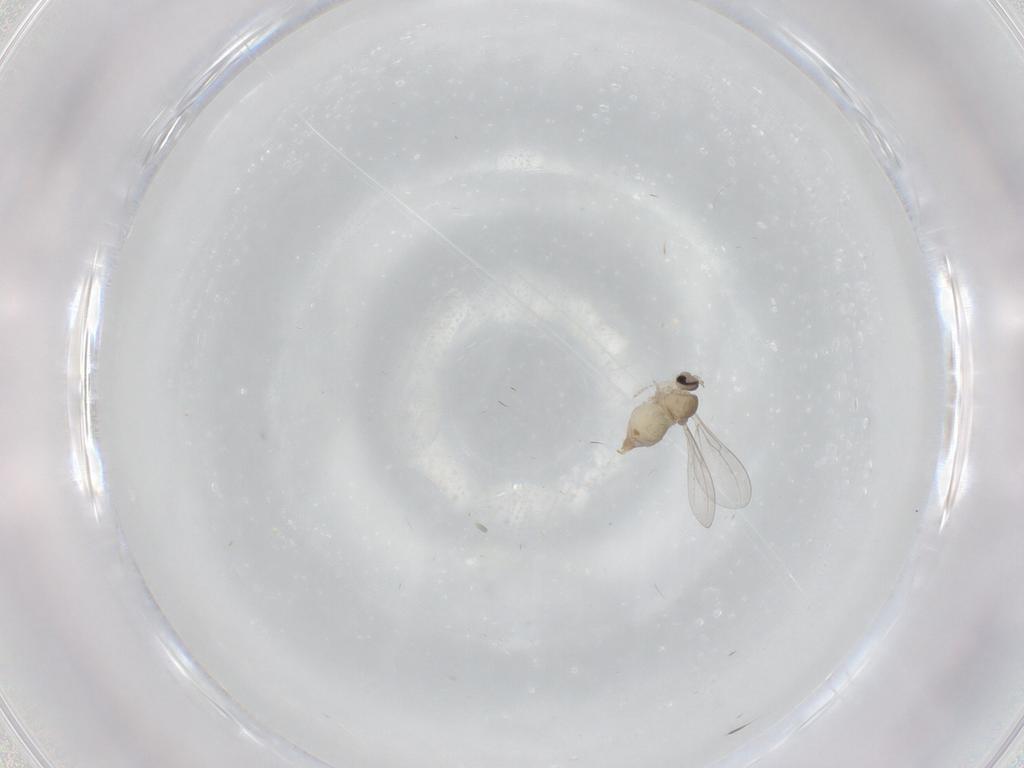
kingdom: Animalia
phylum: Arthropoda
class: Insecta
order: Diptera
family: Cecidomyiidae
